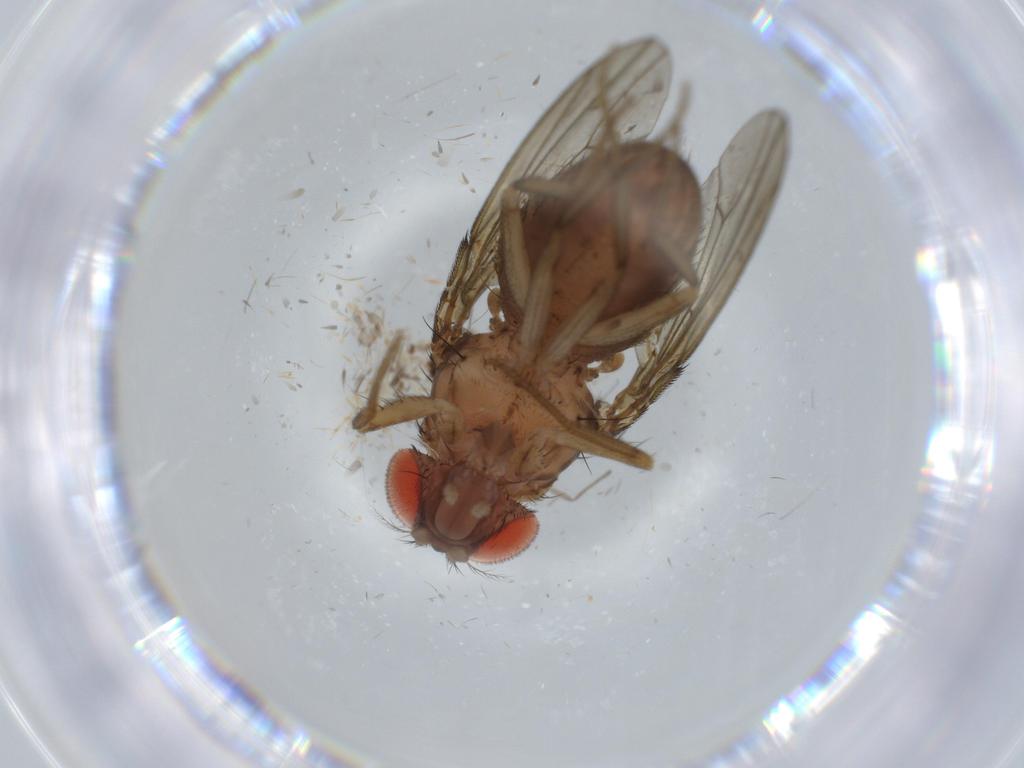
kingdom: Animalia
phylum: Arthropoda
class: Insecta
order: Diptera
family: Drosophilidae
